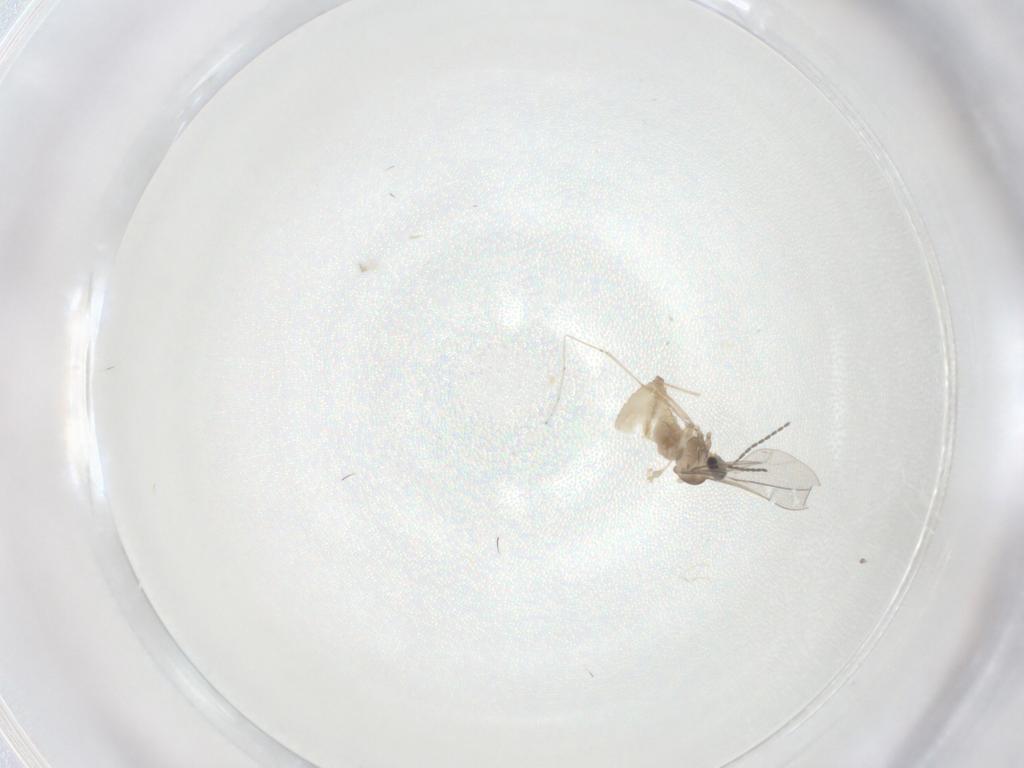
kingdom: Animalia
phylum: Arthropoda
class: Insecta
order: Diptera
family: Cecidomyiidae
